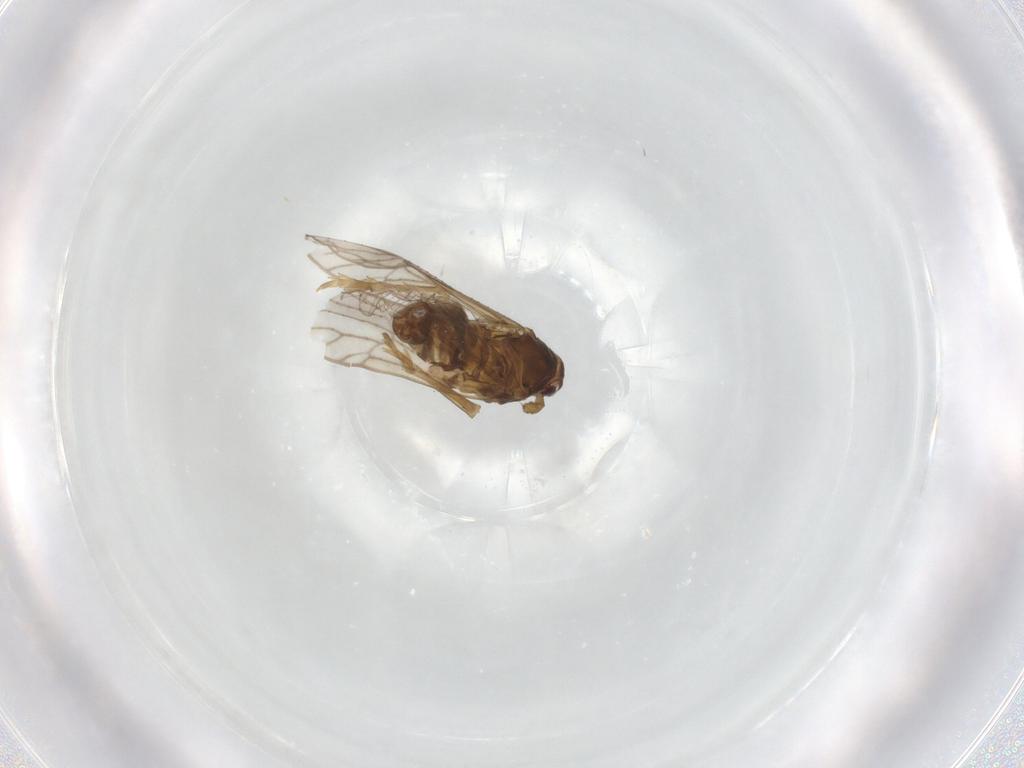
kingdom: Animalia
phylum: Arthropoda
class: Insecta
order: Hemiptera
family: Delphacidae
